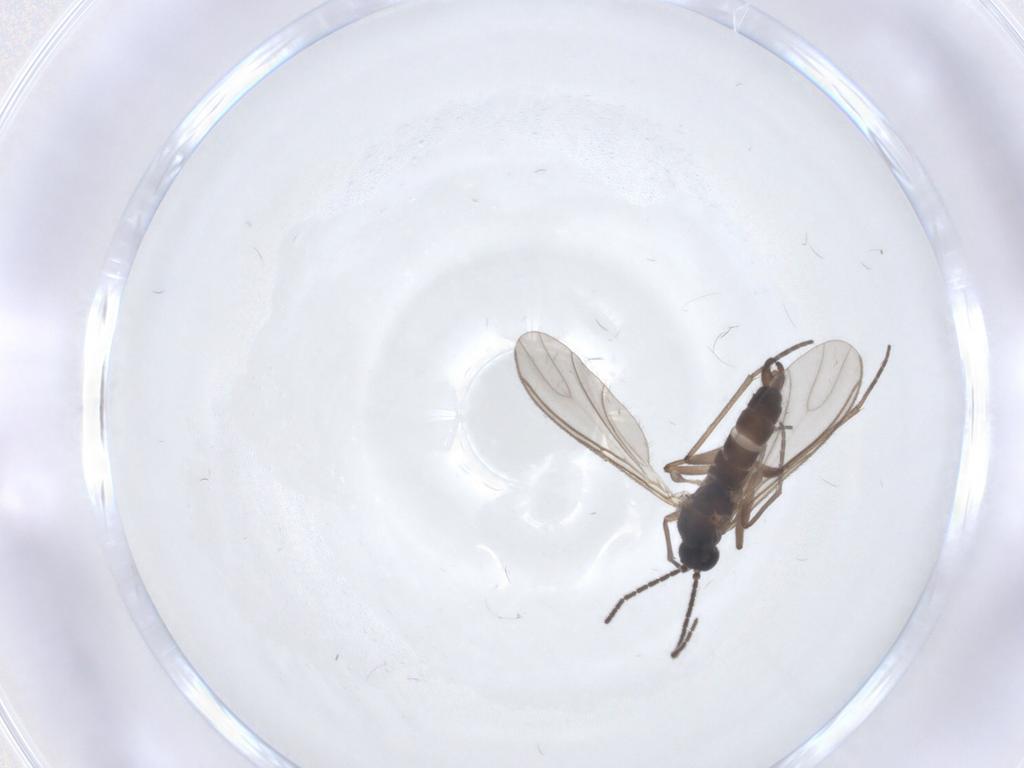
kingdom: Animalia
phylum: Arthropoda
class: Insecta
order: Diptera
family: Sciaridae
